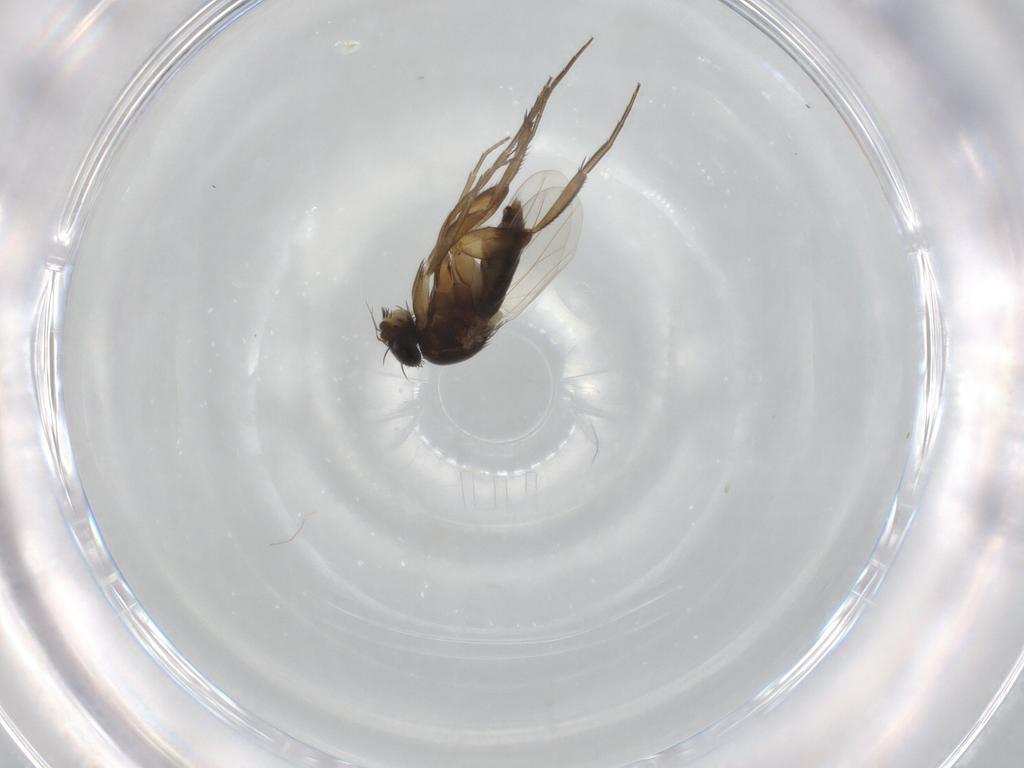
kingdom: Animalia
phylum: Arthropoda
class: Insecta
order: Diptera
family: Phoridae
